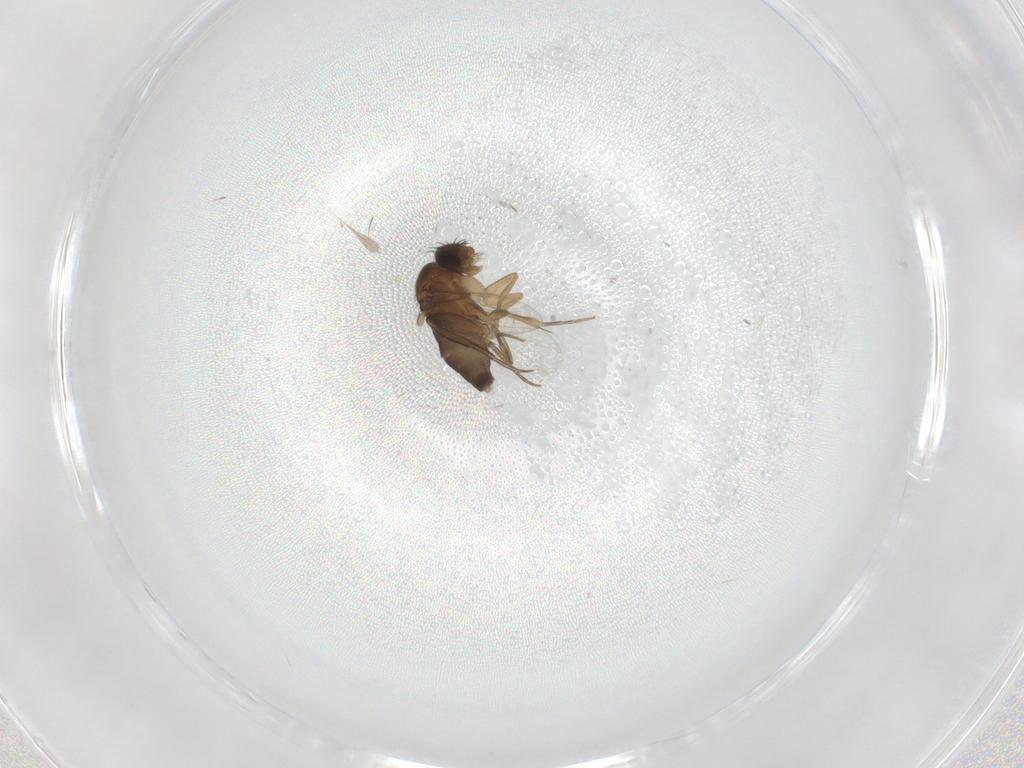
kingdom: Animalia
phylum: Arthropoda
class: Insecta
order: Diptera
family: Phoridae
